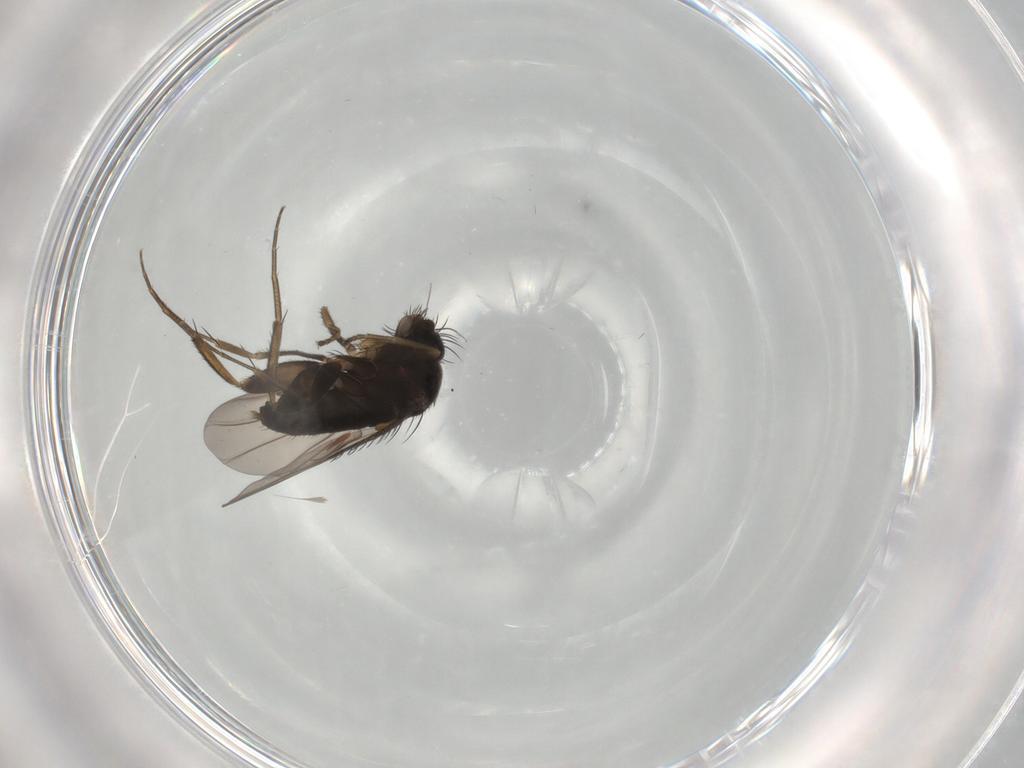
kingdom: Animalia
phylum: Arthropoda
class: Insecta
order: Diptera
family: Phoridae
